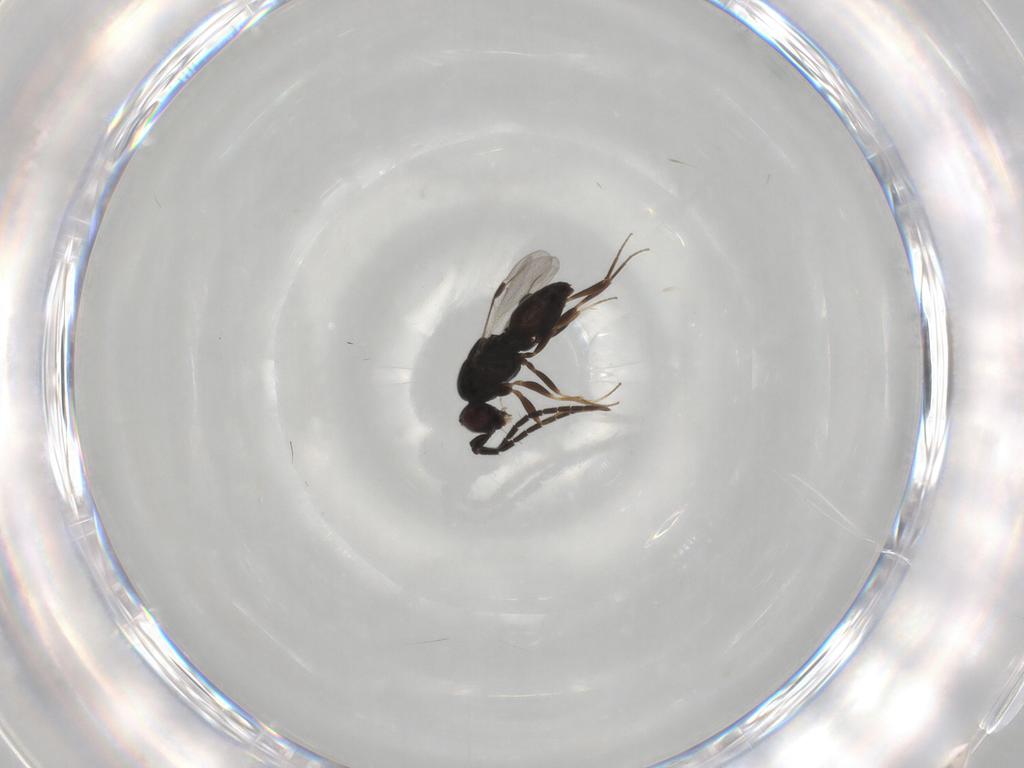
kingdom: Animalia
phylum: Arthropoda
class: Insecta
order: Hymenoptera
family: Megaspilidae
